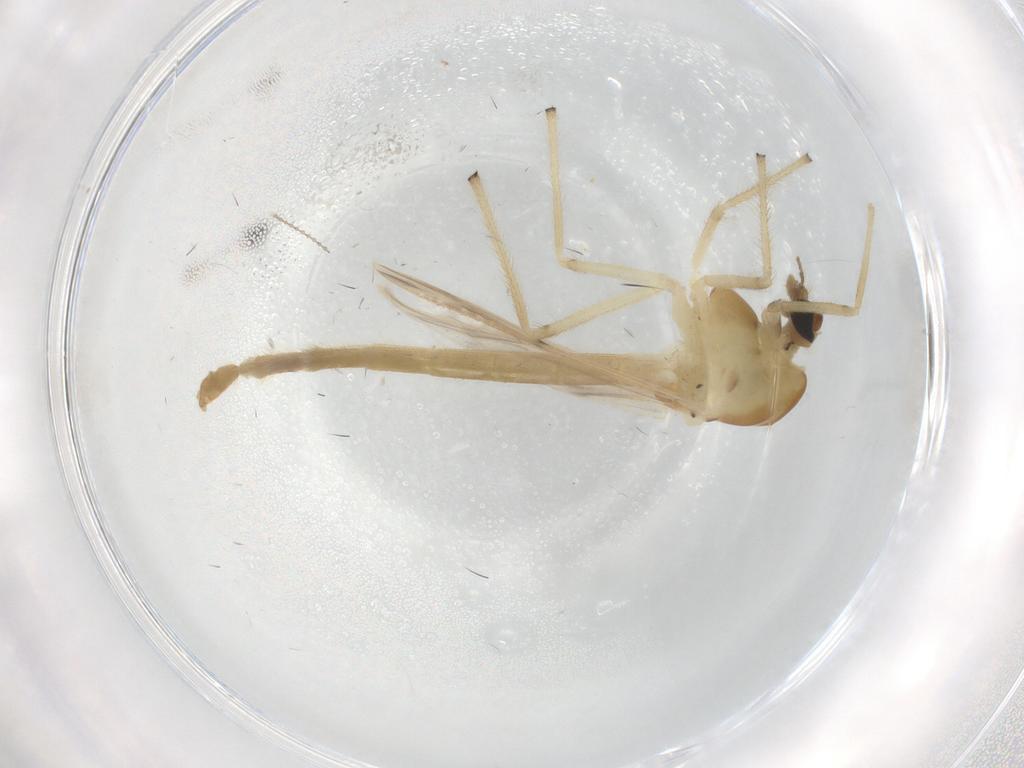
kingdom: Animalia
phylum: Arthropoda
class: Insecta
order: Diptera
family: Chironomidae
